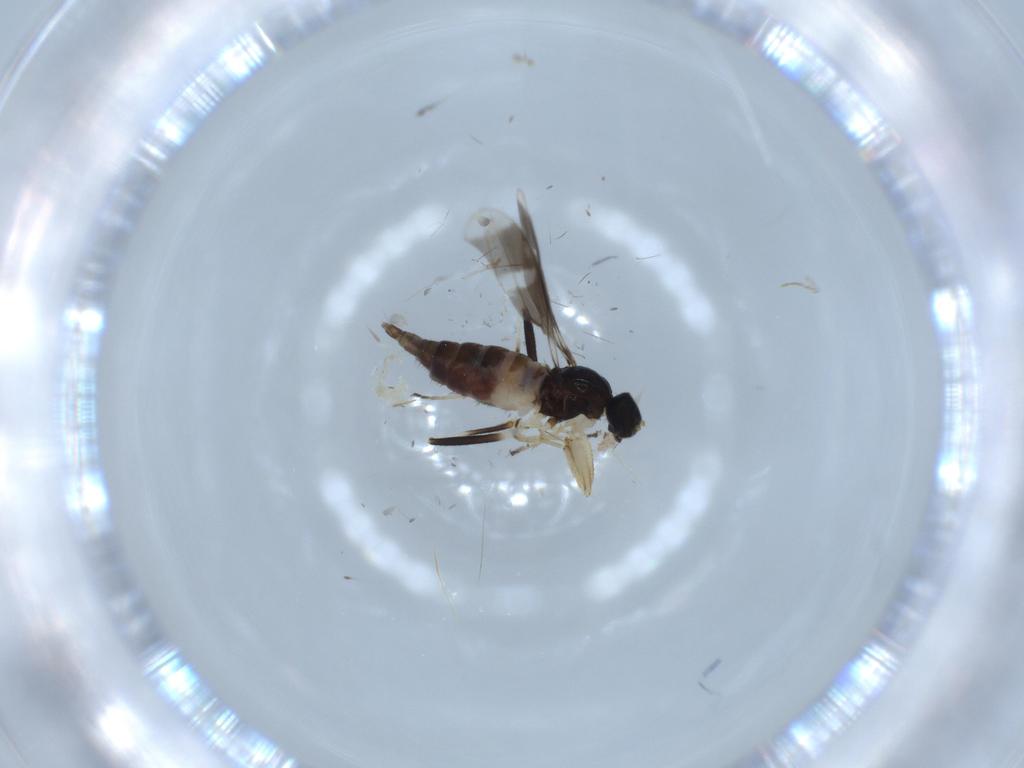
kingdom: Animalia
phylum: Arthropoda
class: Insecta
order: Diptera
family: Hybotidae
